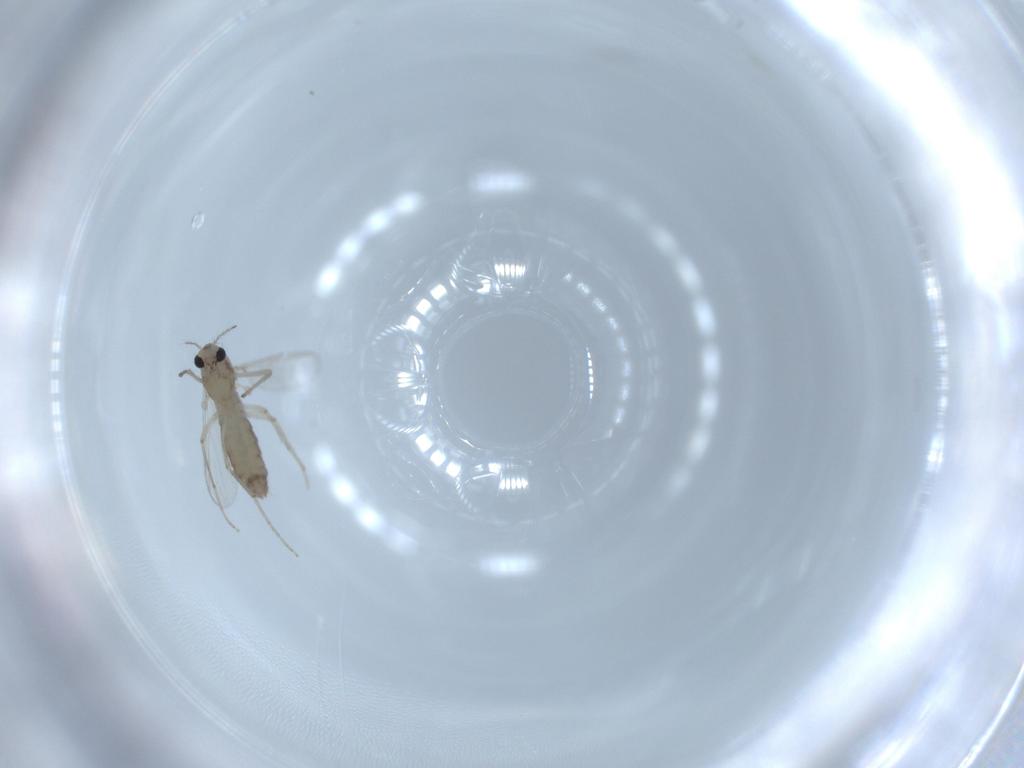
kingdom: Animalia
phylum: Arthropoda
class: Insecta
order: Diptera
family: Chironomidae
